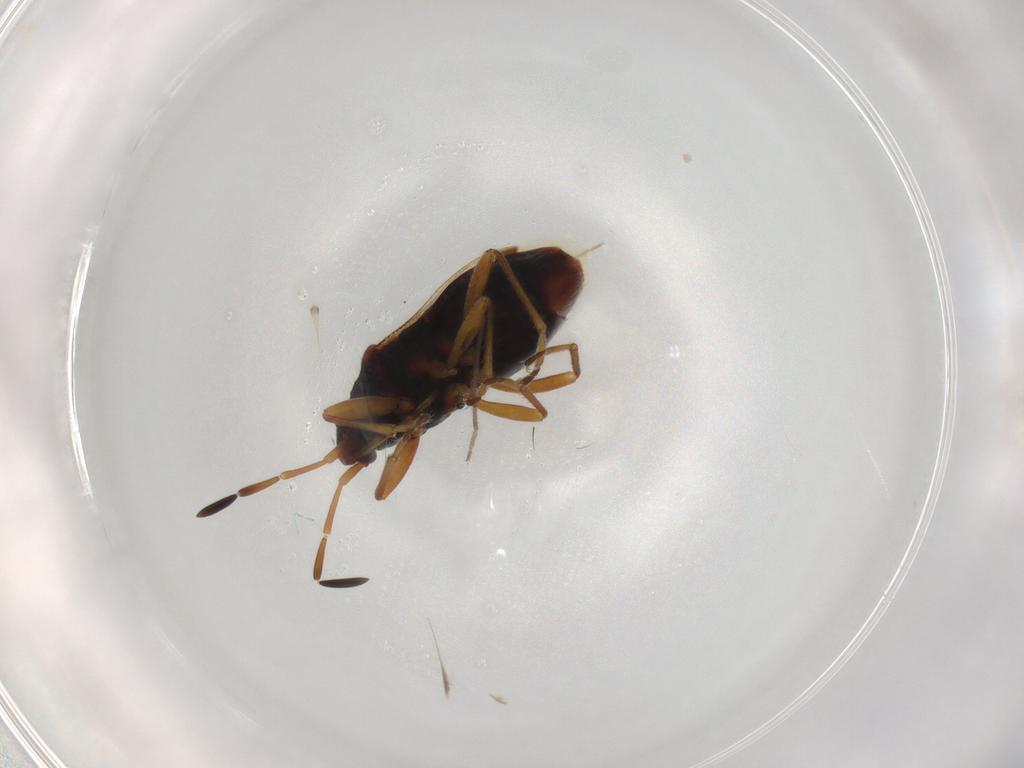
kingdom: Animalia
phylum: Arthropoda
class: Insecta
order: Hemiptera
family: Rhyparochromidae
